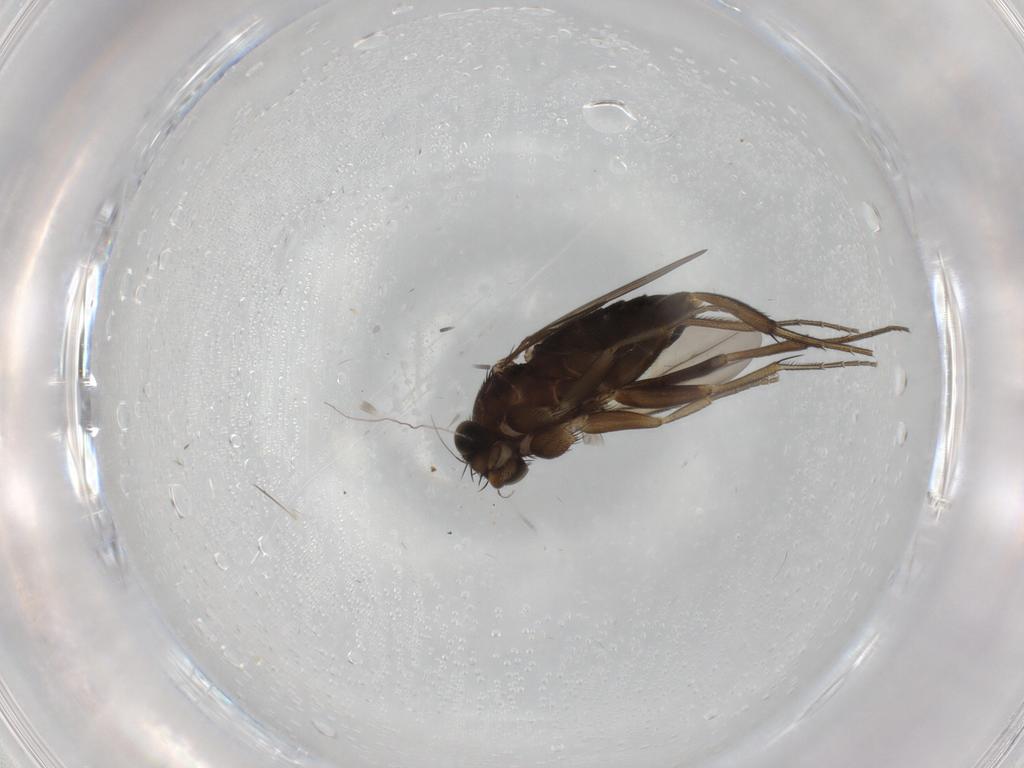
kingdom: Animalia
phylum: Arthropoda
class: Insecta
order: Diptera
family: Phoridae
